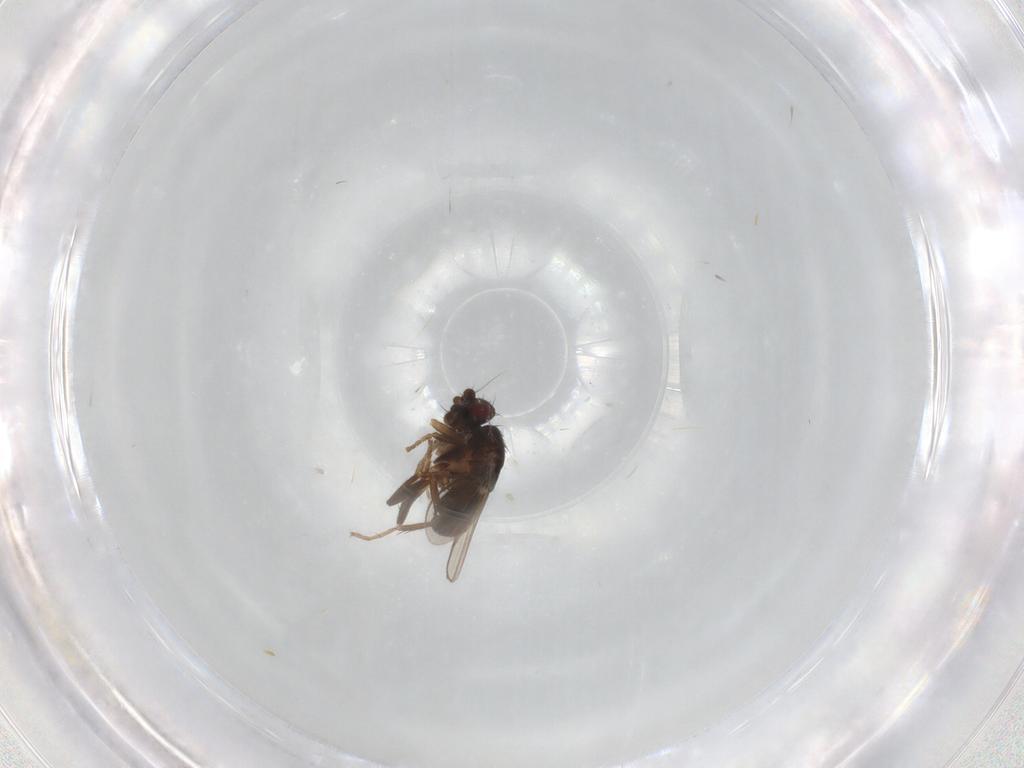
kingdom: Animalia
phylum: Arthropoda
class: Insecta
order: Diptera
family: Sphaeroceridae
